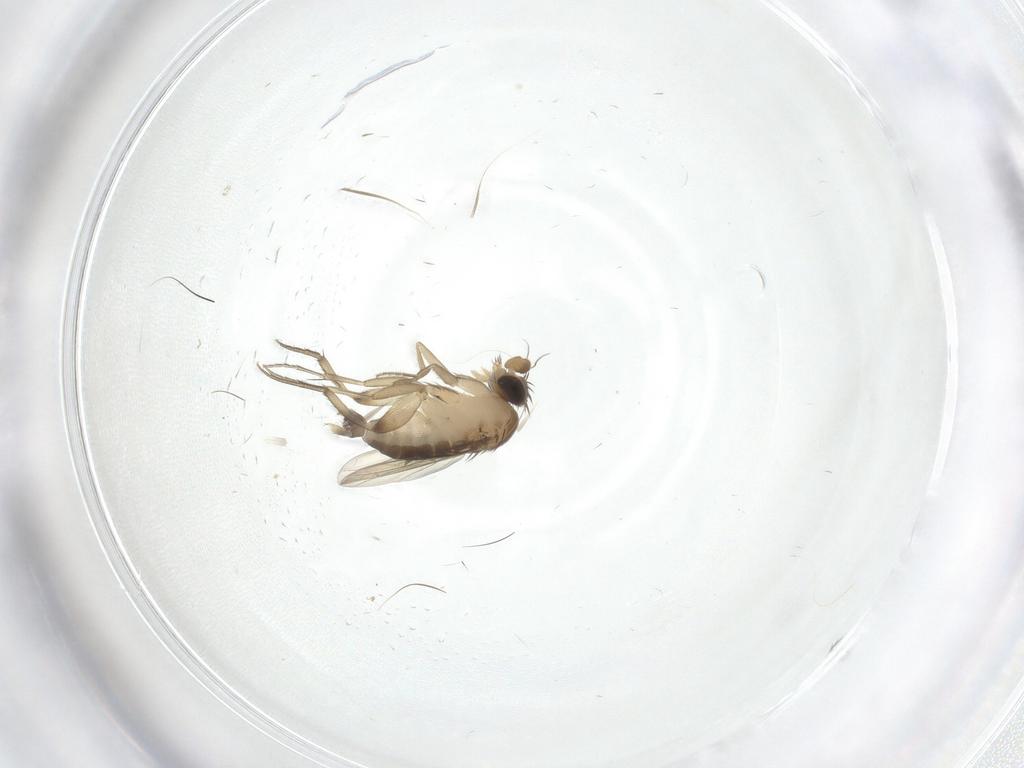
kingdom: Animalia
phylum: Arthropoda
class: Insecta
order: Diptera
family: Phoridae
